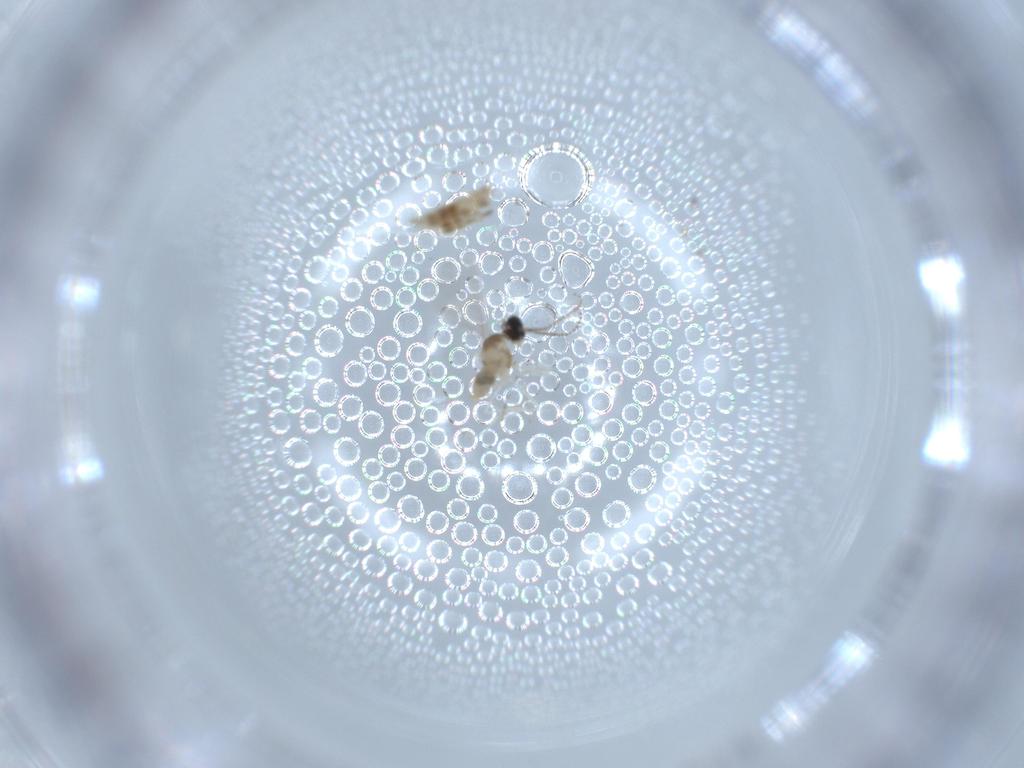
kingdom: Animalia
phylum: Arthropoda
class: Insecta
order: Diptera
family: Cecidomyiidae
